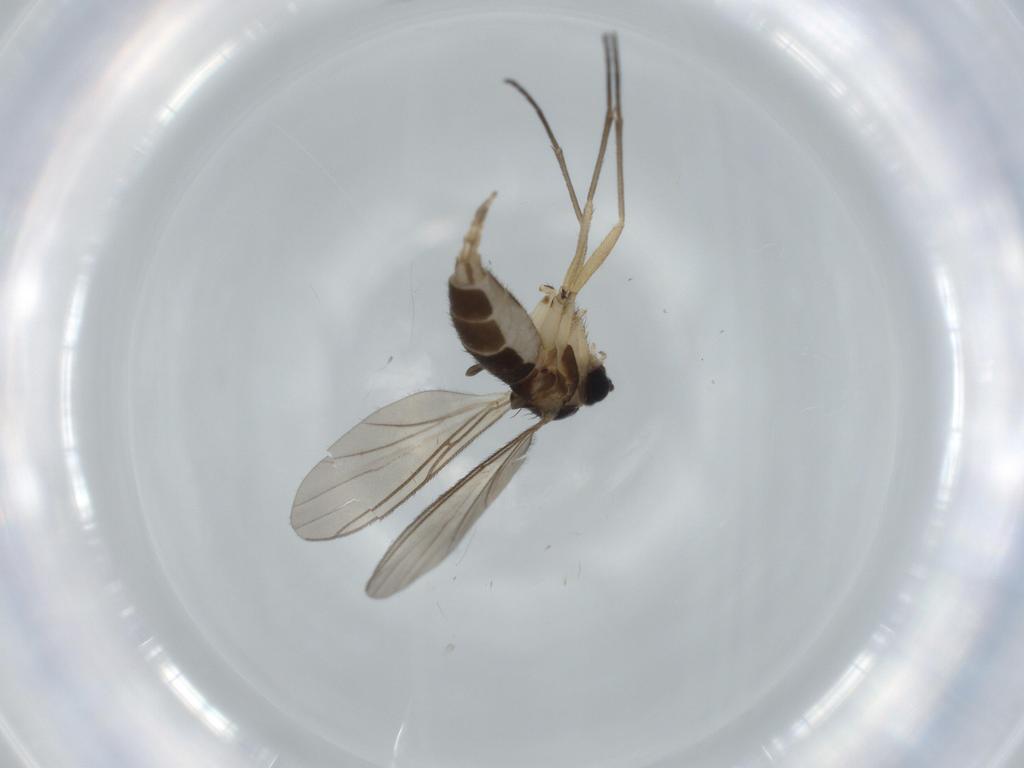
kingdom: Animalia
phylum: Arthropoda
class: Insecta
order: Diptera
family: Sciaridae
